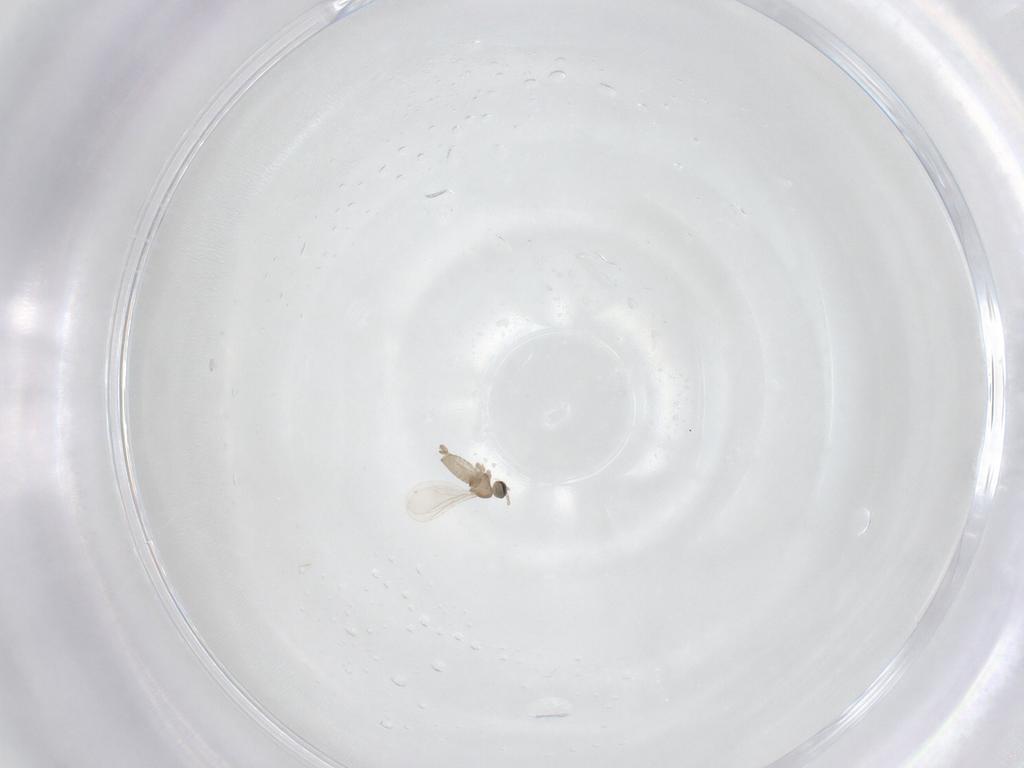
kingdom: Animalia
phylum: Arthropoda
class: Insecta
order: Diptera
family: Cecidomyiidae
